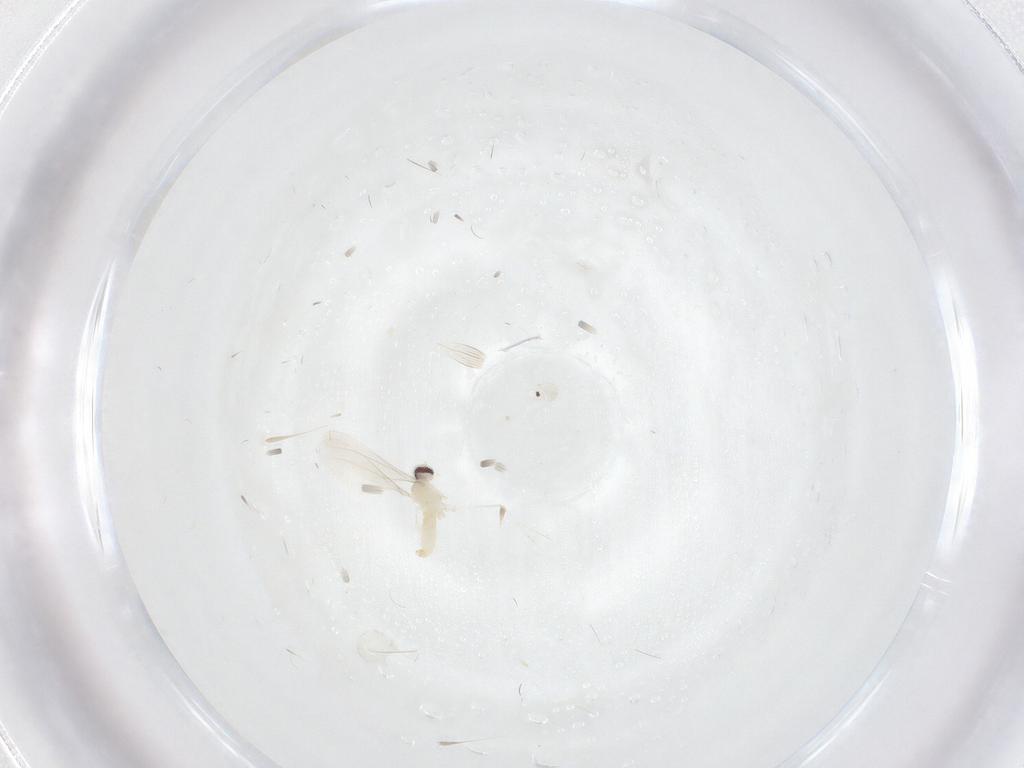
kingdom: Animalia
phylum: Arthropoda
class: Insecta
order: Diptera
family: Cecidomyiidae
